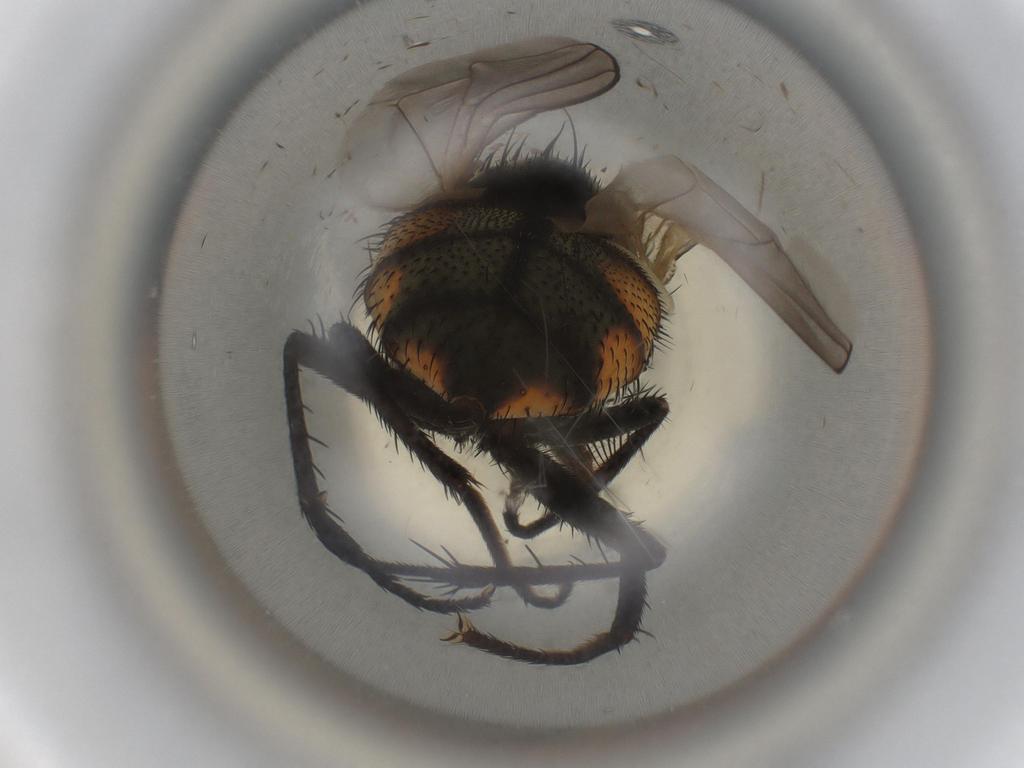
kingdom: Animalia
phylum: Arthropoda
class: Insecta
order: Diptera
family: Muscidae
